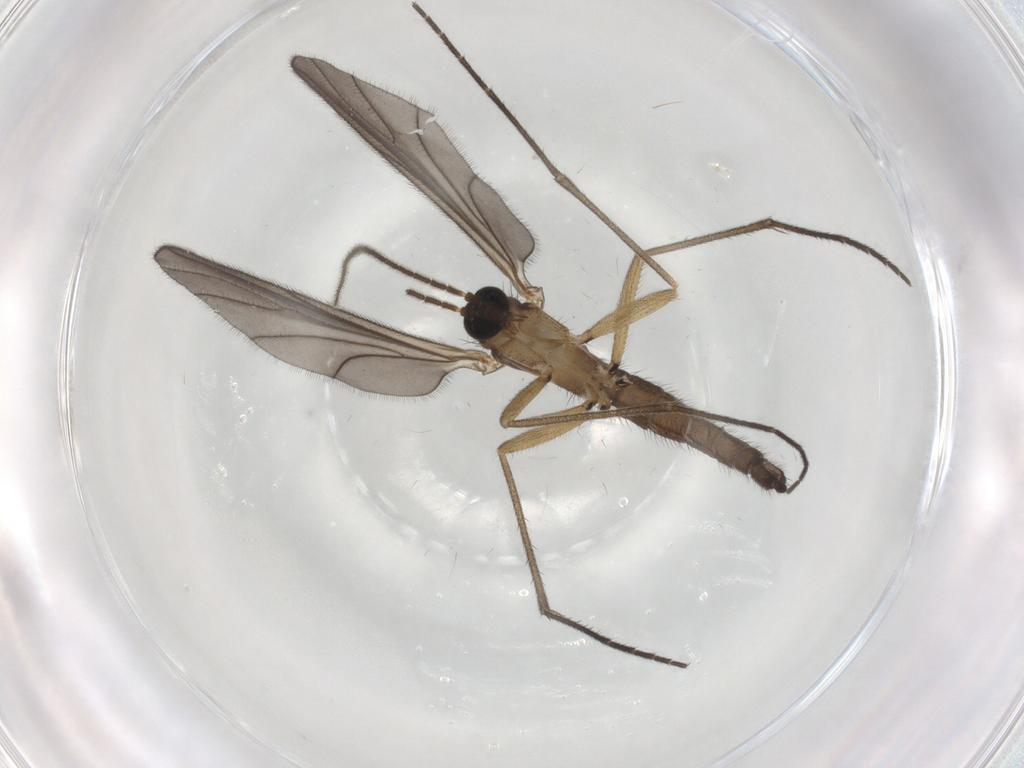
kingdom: Animalia
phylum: Arthropoda
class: Insecta
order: Diptera
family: Sciaridae
